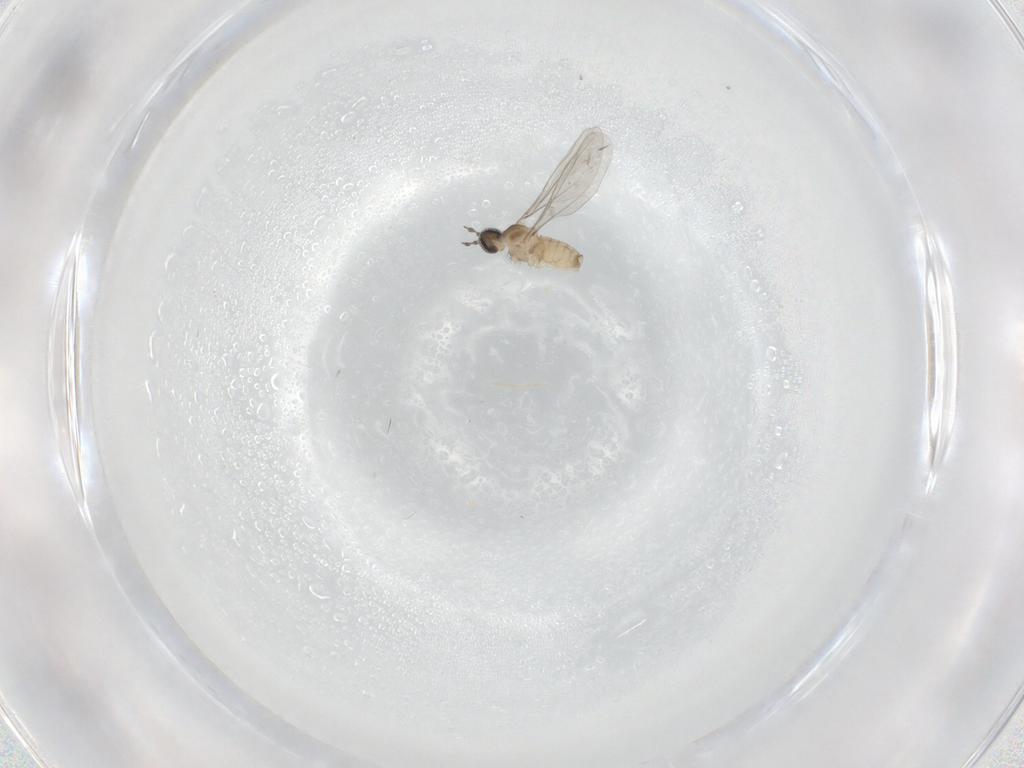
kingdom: Animalia
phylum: Arthropoda
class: Insecta
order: Diptera
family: Cecidomyiidae
